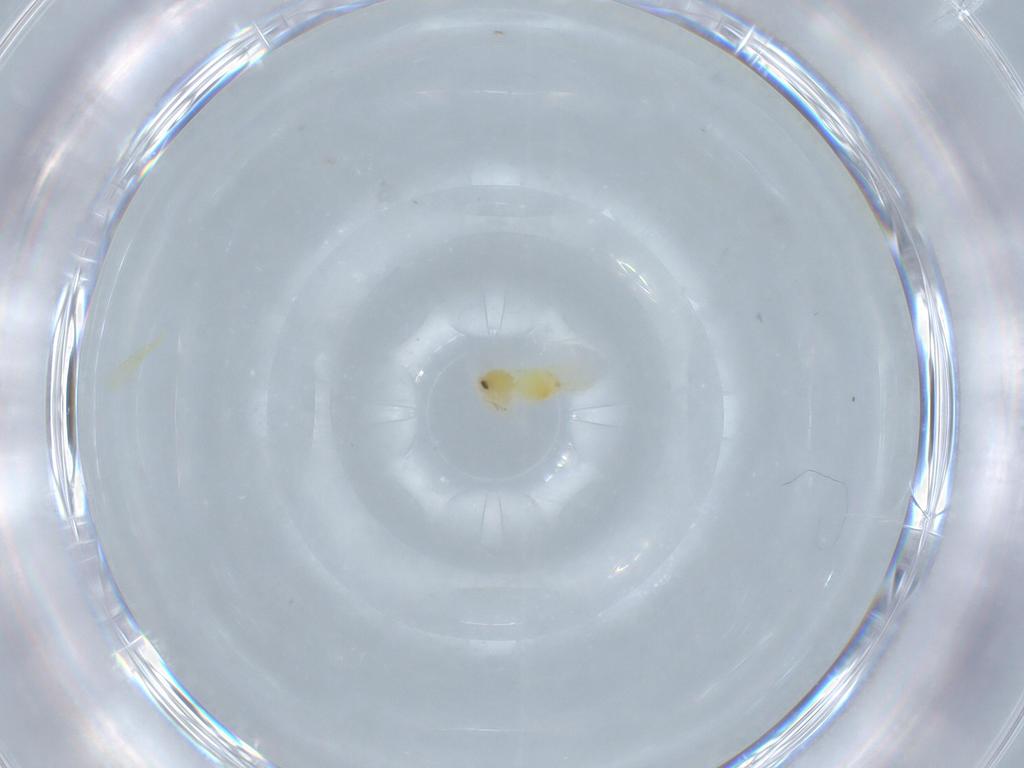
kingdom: Animalia
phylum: Arthropoda
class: Insecta
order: Hemiptera
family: Aleyrodidae
